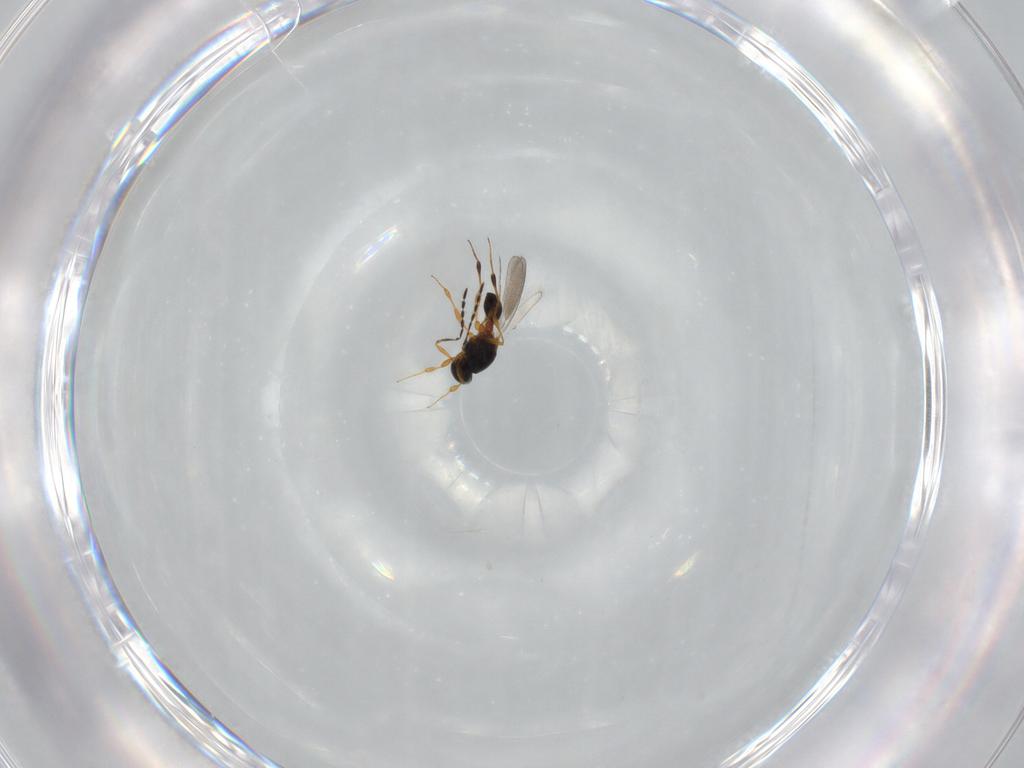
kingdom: Animalia
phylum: Arthropoda
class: Insecta
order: Hymenoptera
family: Platygastridae
